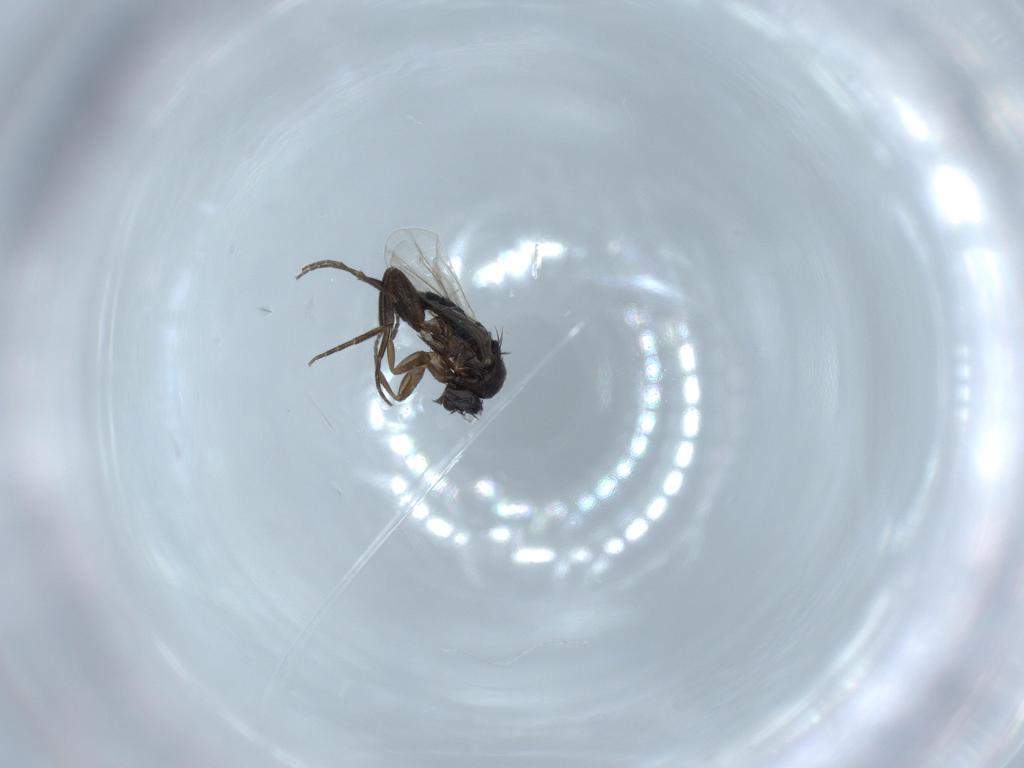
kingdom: Animalia
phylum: Arthropoda
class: Insecta
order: Diptera
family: Phoridae
